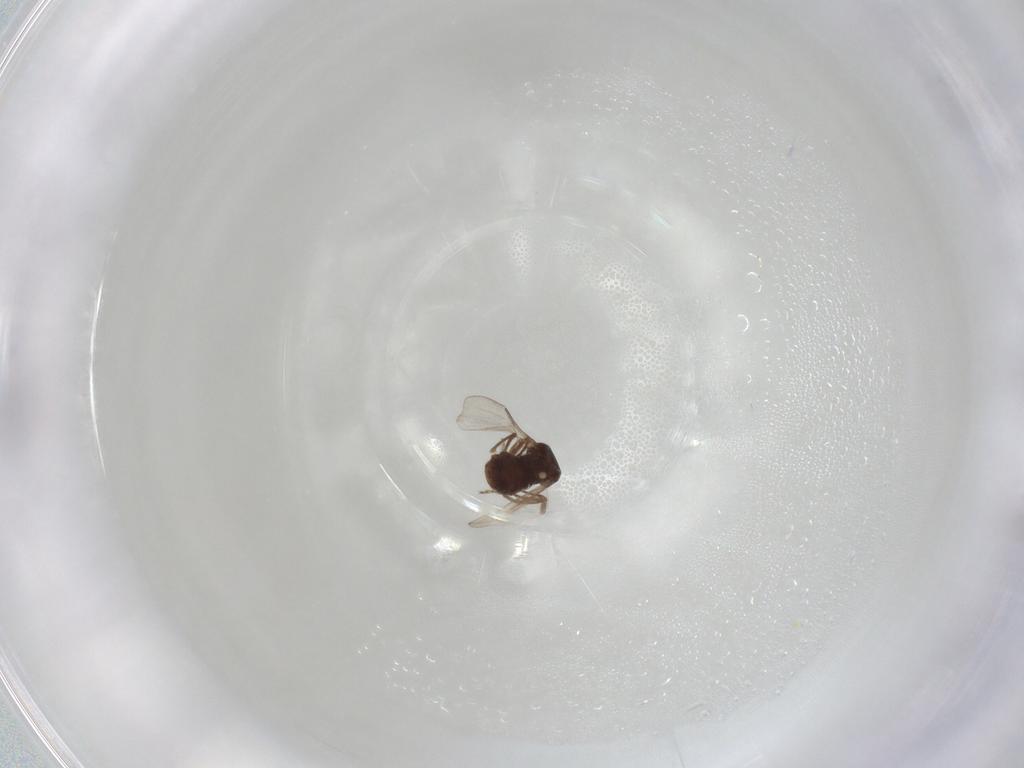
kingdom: Animalia
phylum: Arthropoda
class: Insecta
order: Diptera
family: Ceratopogonidae
